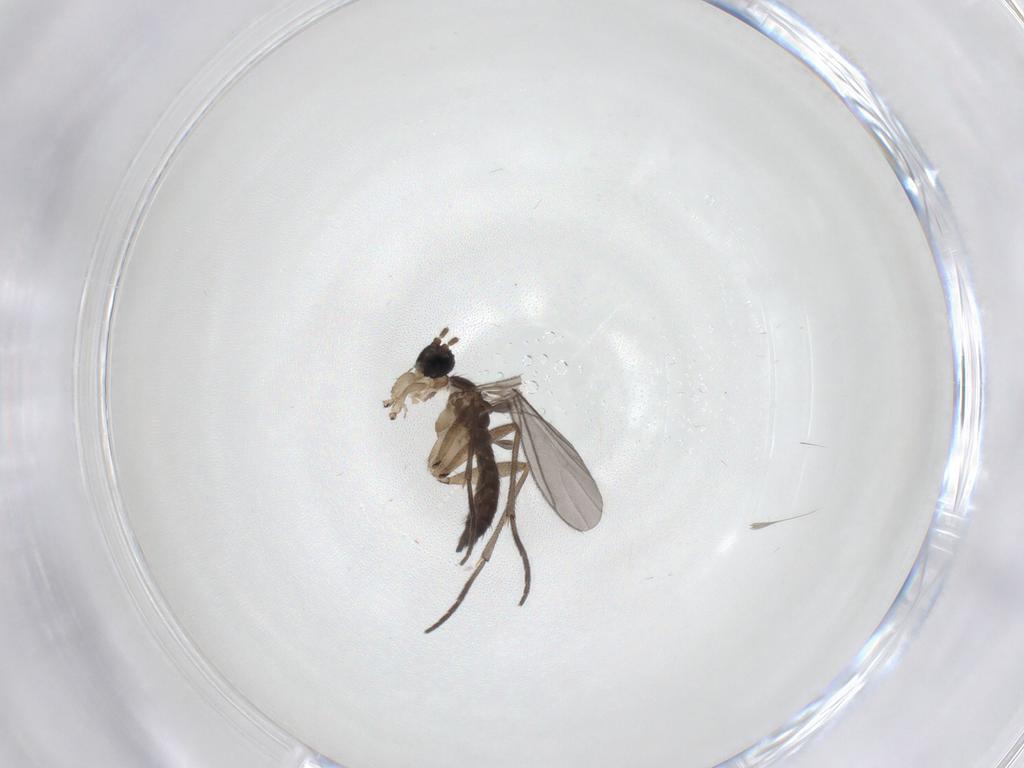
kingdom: Animalia
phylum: Arthropoda
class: Insecta
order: Diptera
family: Sciaridae
